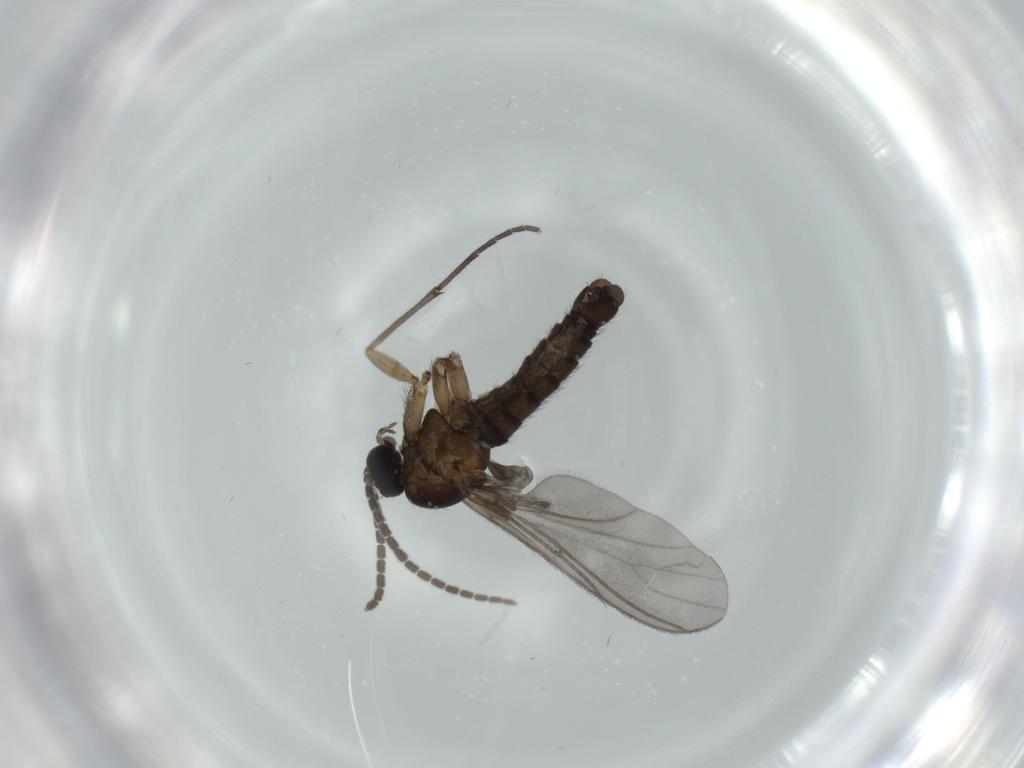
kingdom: Animalia
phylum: Arthropoda
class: Insecta
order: Diptera
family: Sciaridae
